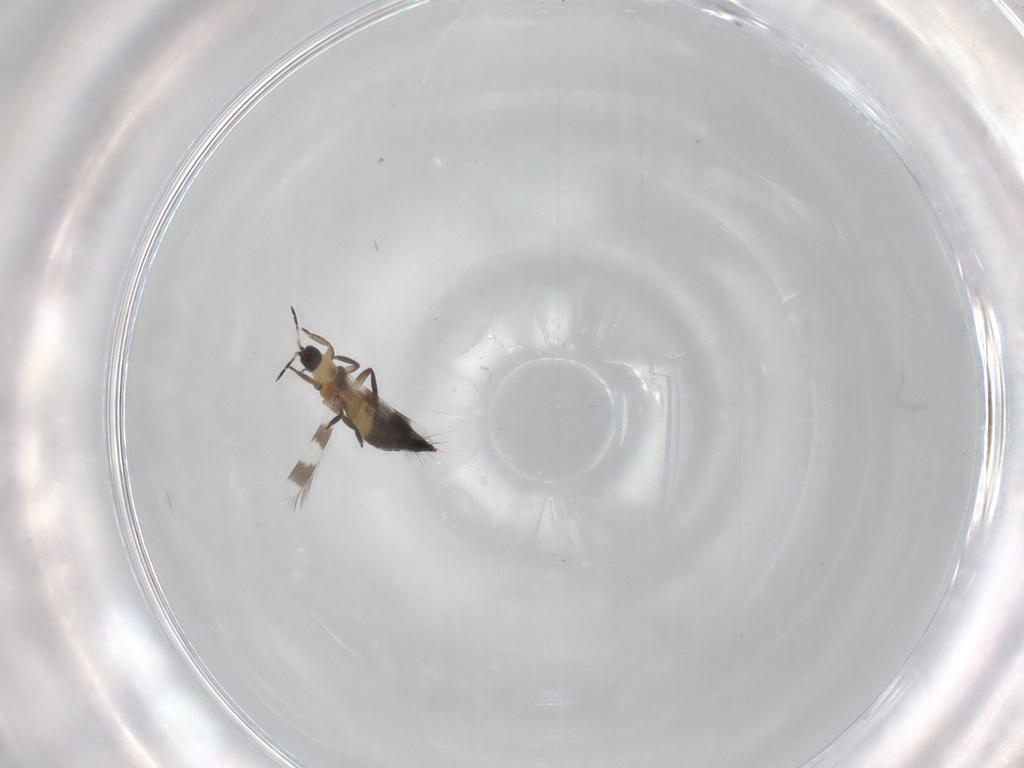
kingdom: Animalia
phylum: Arthropoda
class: Insecta
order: Thysanoptera
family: Aeolothripidae
